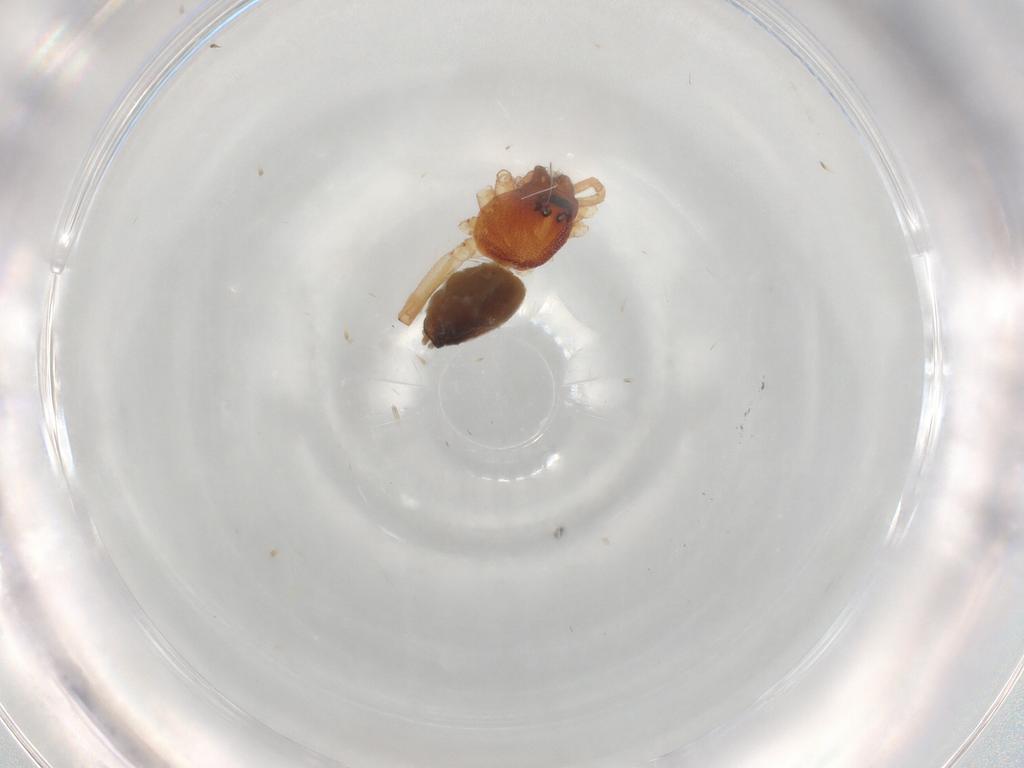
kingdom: Animalia
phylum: Arthropoda
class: Arachnida
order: Araneae
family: Trachelidae
